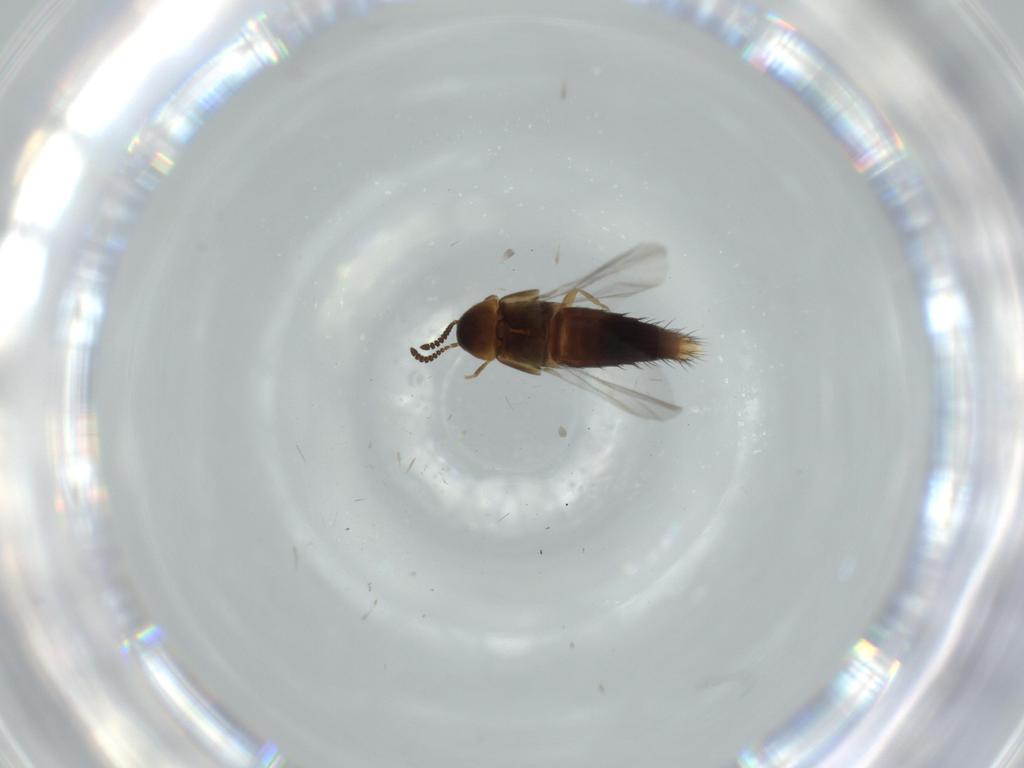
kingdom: Animalia
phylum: Arthropoda
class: Insecta
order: Coleoptera
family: Staphylinidae
